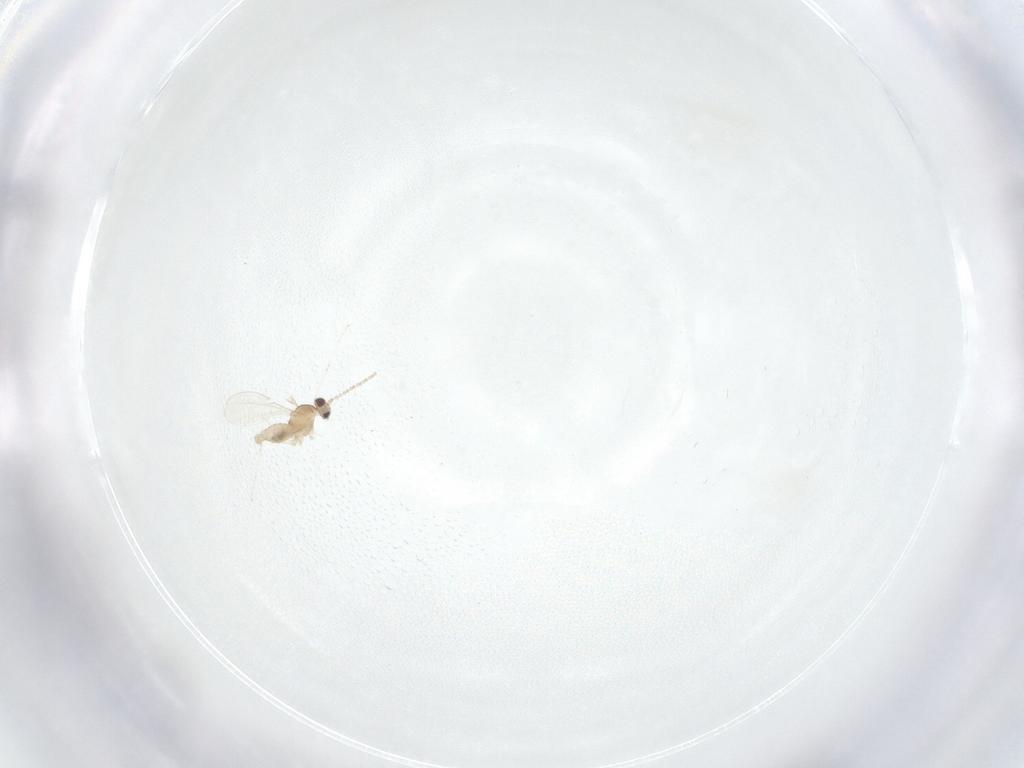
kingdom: Animalia
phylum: Arthropoda
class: Insecta
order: Diptera
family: Cecidomyiidae
